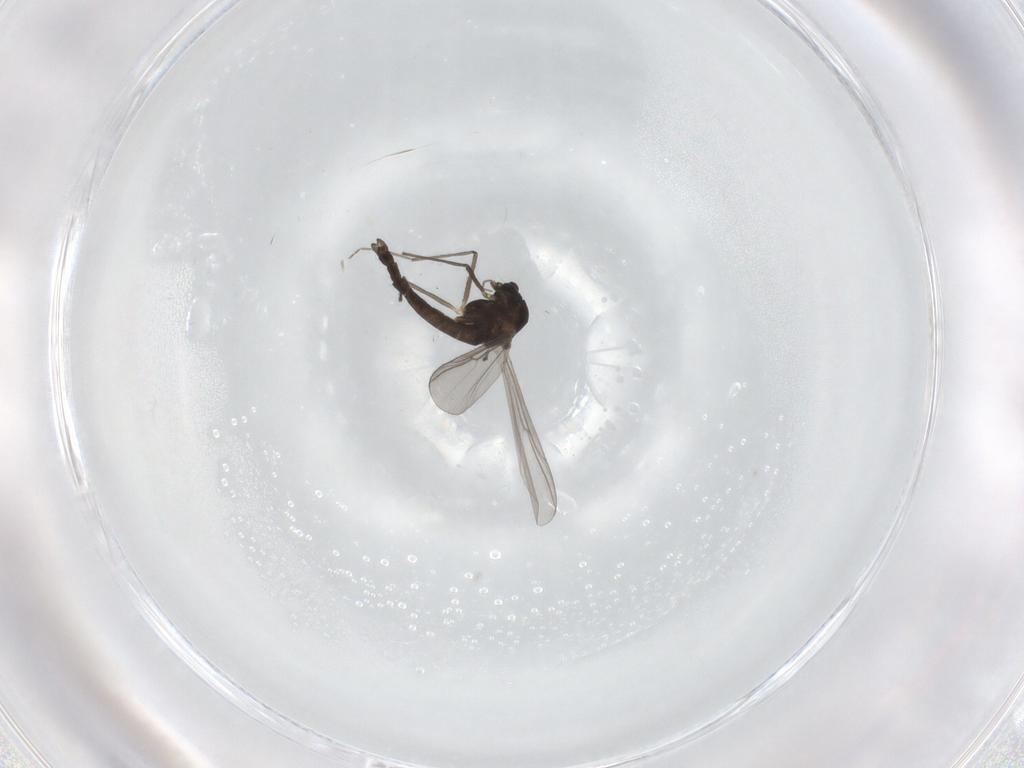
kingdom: Animalia
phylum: Arthropoda
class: Insecta
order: Diptera
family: Chironomidae
